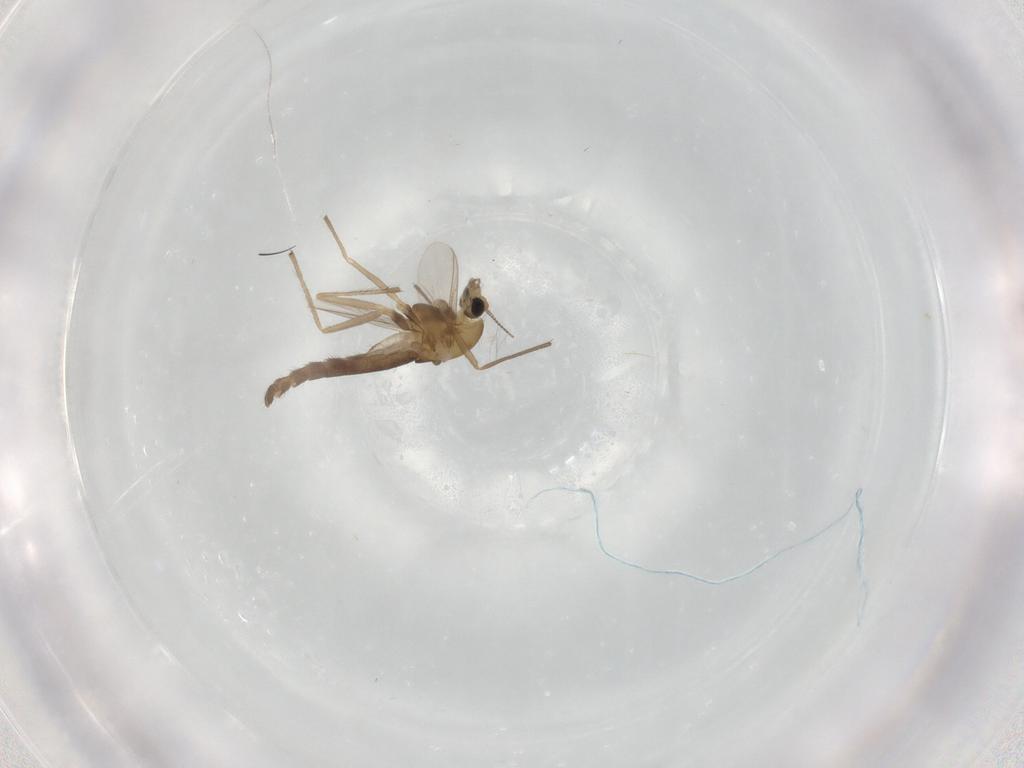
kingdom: Animalia
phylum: Arthropoda
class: Insecta
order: Diptera
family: Chironomidae
